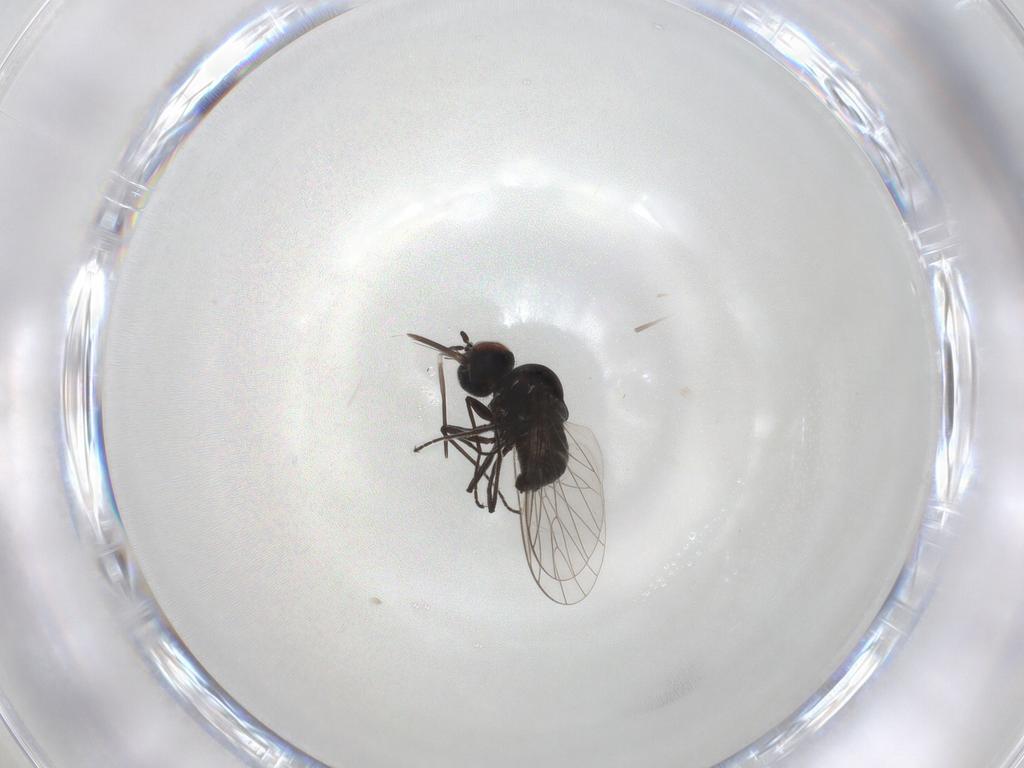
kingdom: Animalia
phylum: Arthropoda
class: Insecta
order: Diptera
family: Bombyliidae
